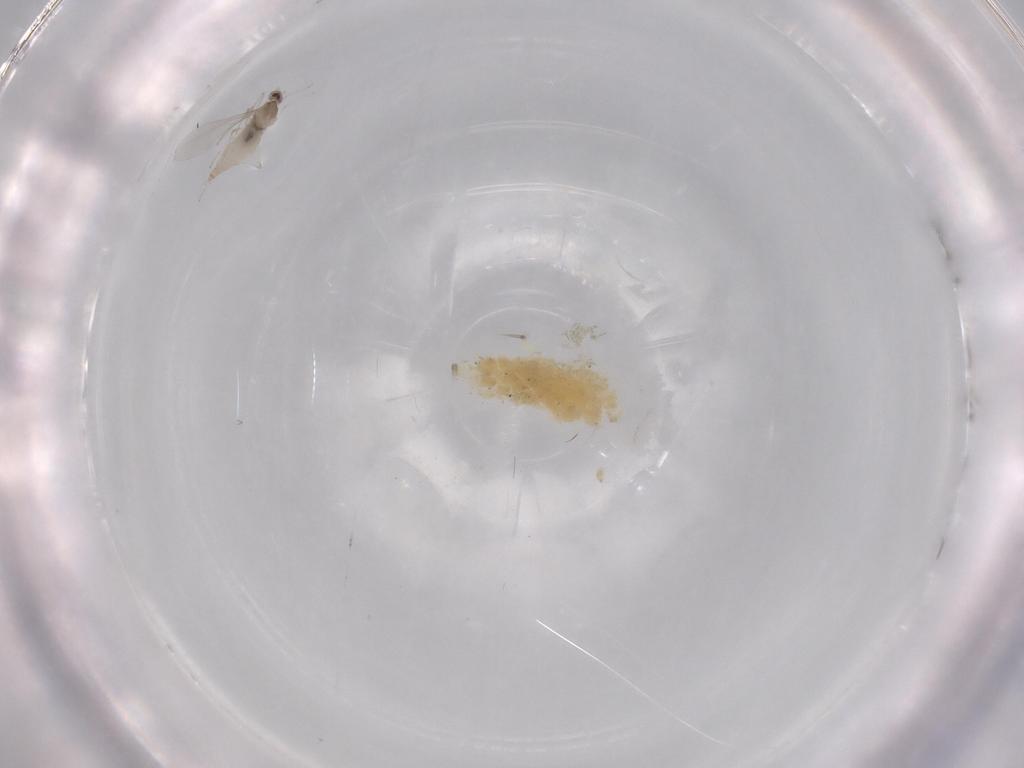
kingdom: Animalia
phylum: Arthropoda
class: Insecta
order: Diptera
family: Cecidomyiidae
